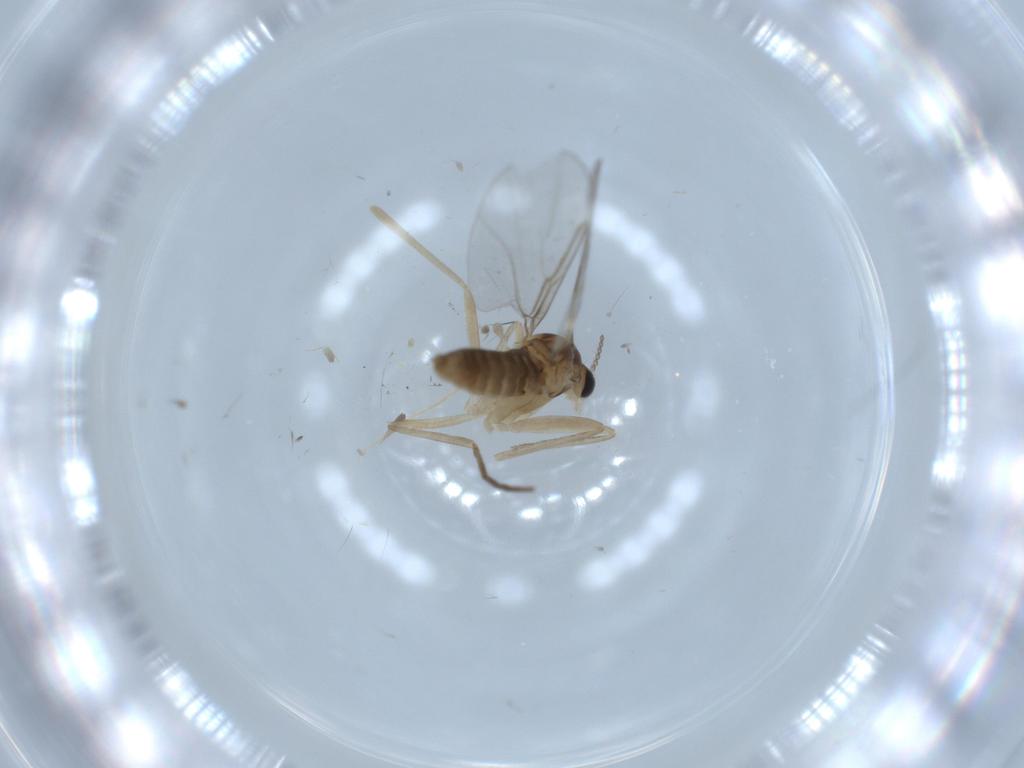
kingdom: Animalia
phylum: Arthropoda
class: Insecta
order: Diptera
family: Cecidomyiidae
